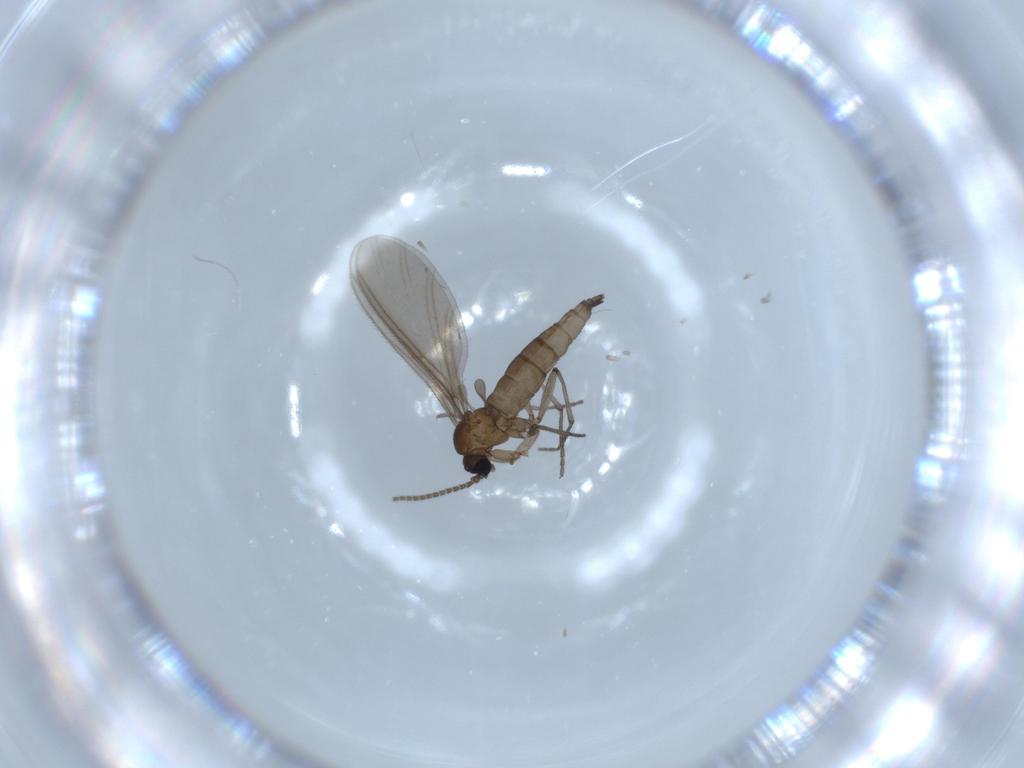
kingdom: Animalia
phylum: Arthropoda
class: Insecta
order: Diptera
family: Sciaridae
